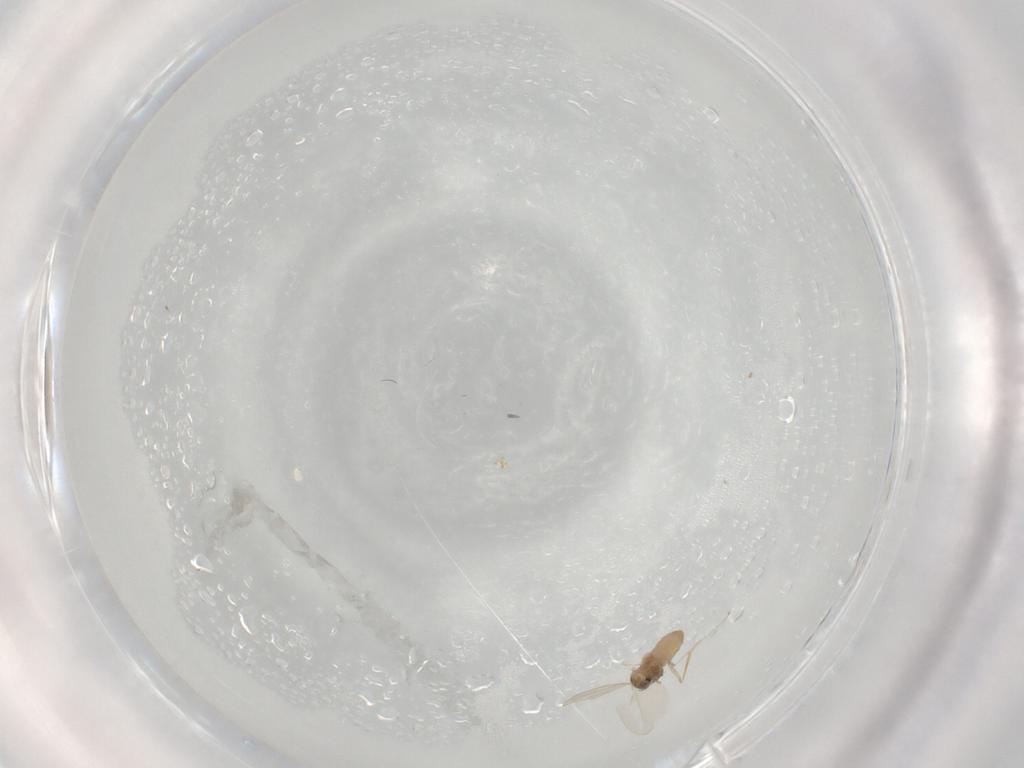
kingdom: Animalia
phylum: Arthropoda
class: Insecta
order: Diptera
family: Cecidomyiidae
